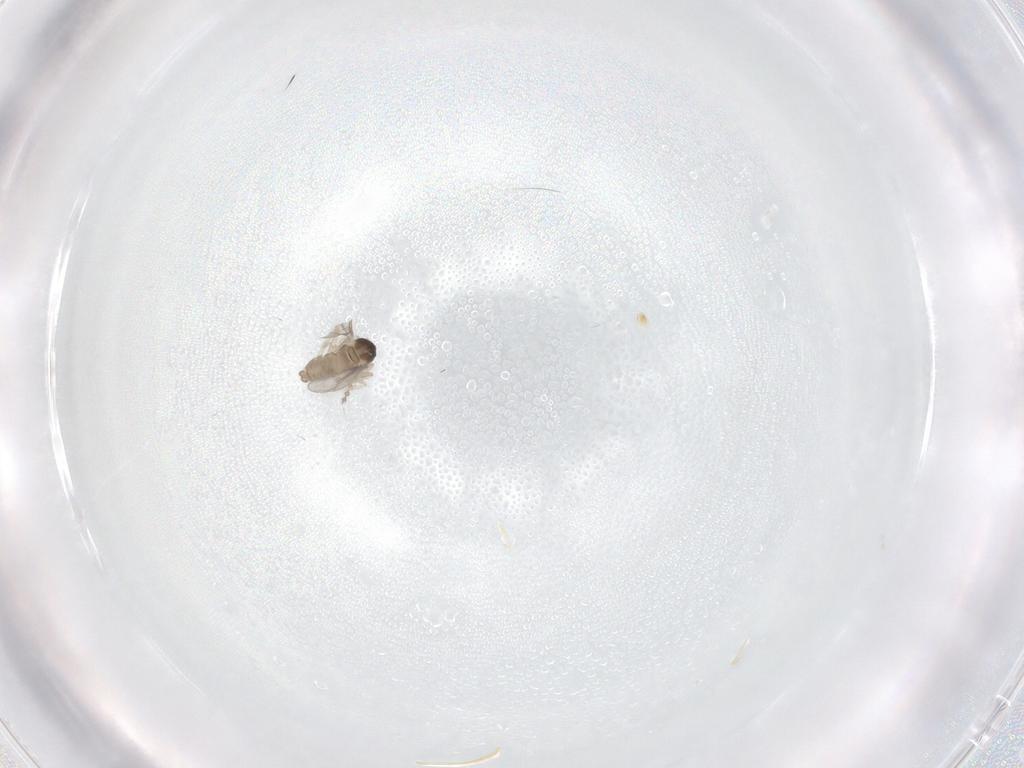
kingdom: Animalia
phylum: Arthropoda
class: Insecta
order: Diptera
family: Cecidomyiidae
